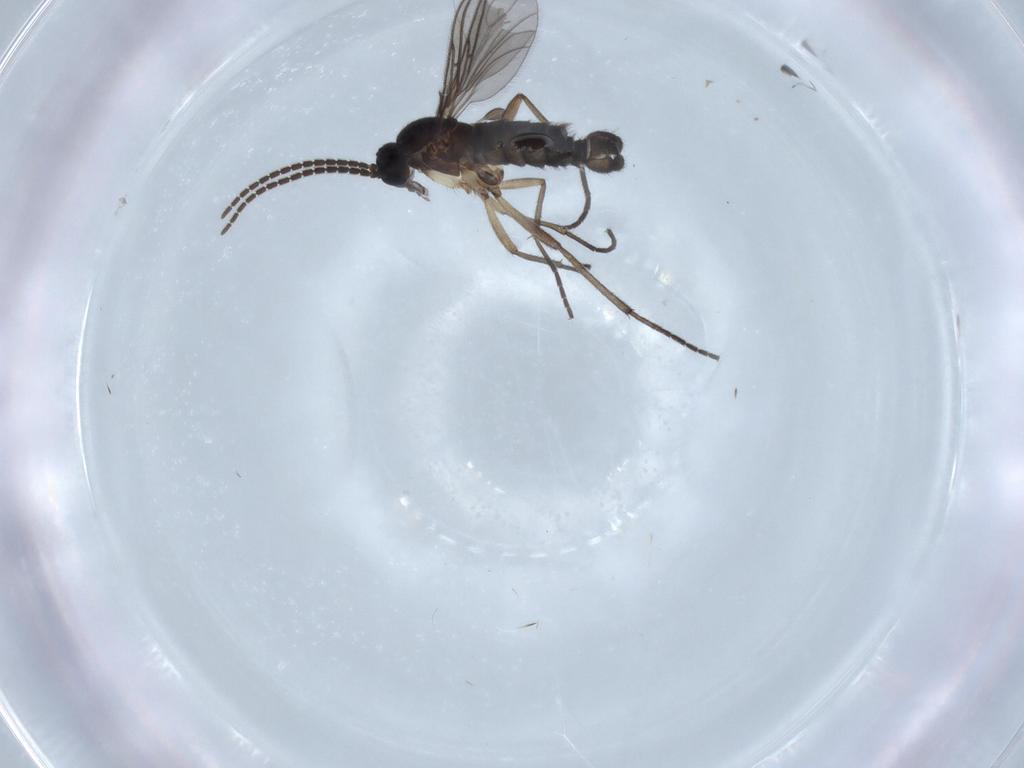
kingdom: Animalia
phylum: Arthropoda
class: Insecta
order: Diptera
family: Sciaridae
